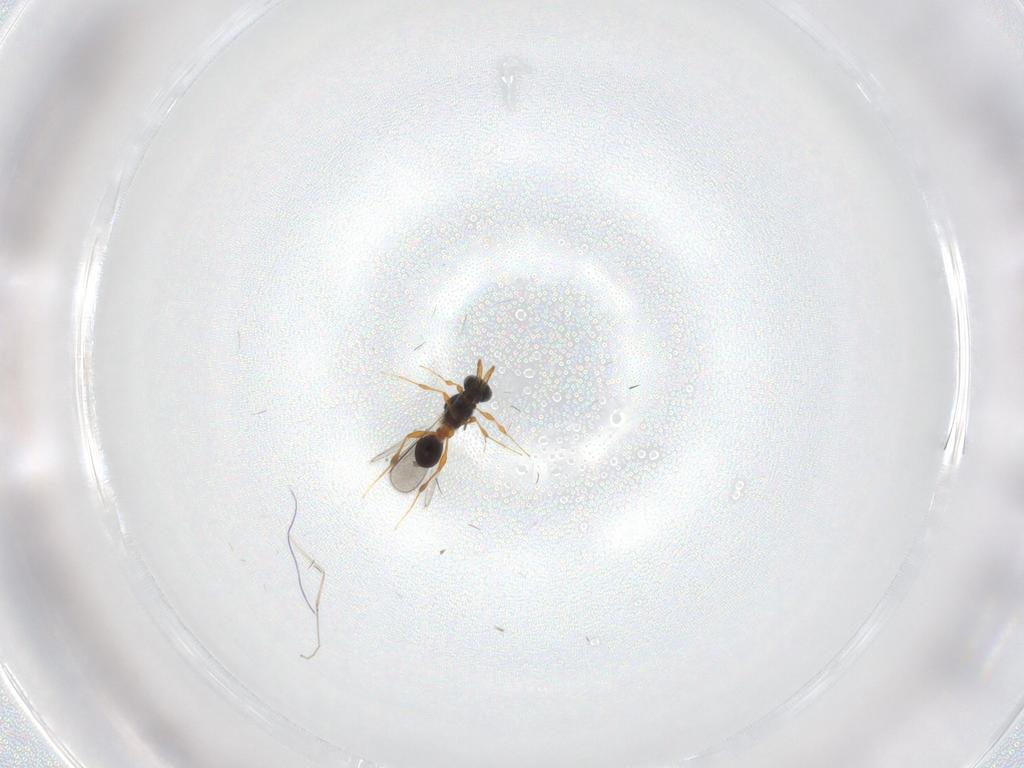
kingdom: Animalia
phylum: Arthropoda
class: Insecta
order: Hymenoptera
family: Platygastridae
